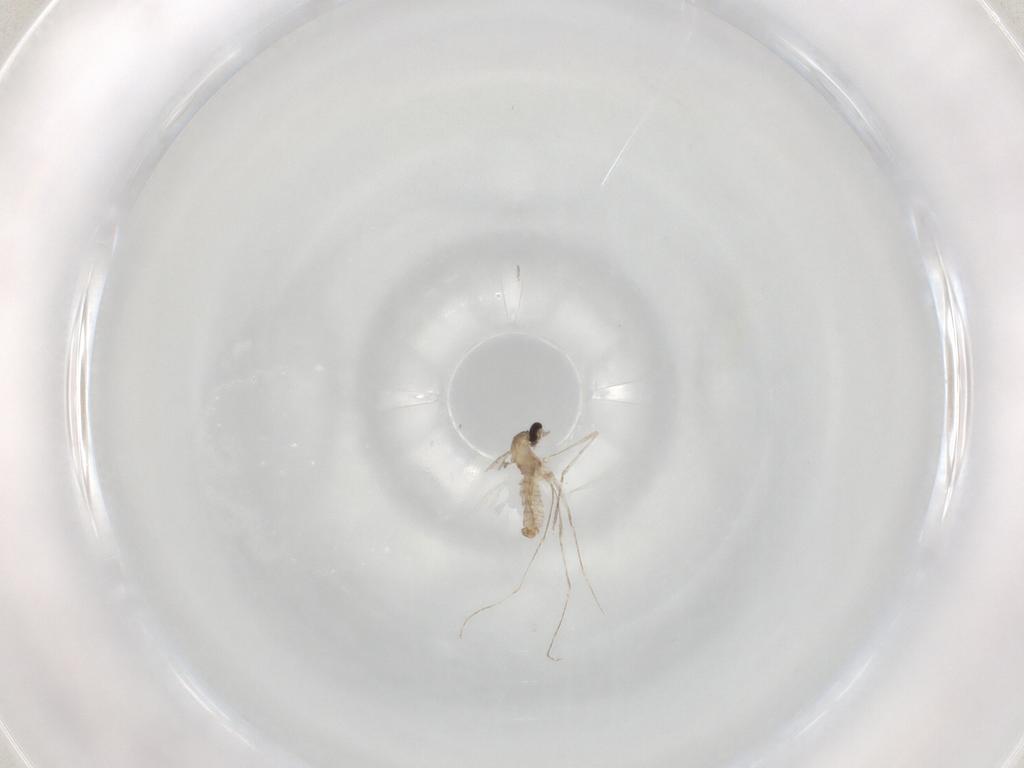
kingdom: Animalia
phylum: Arthropoda
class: Insecta
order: Diptera
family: Cecidomyiidae
